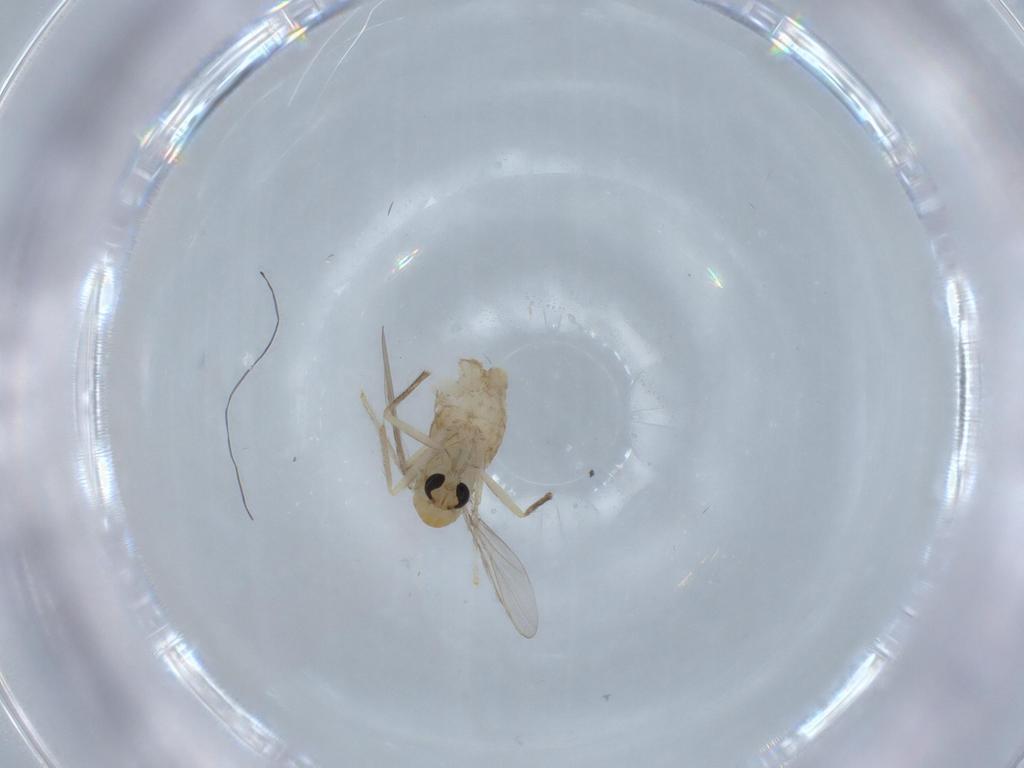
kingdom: Animalia
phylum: Arthropoda
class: Insecta
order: Diptera
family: Chironomidae
